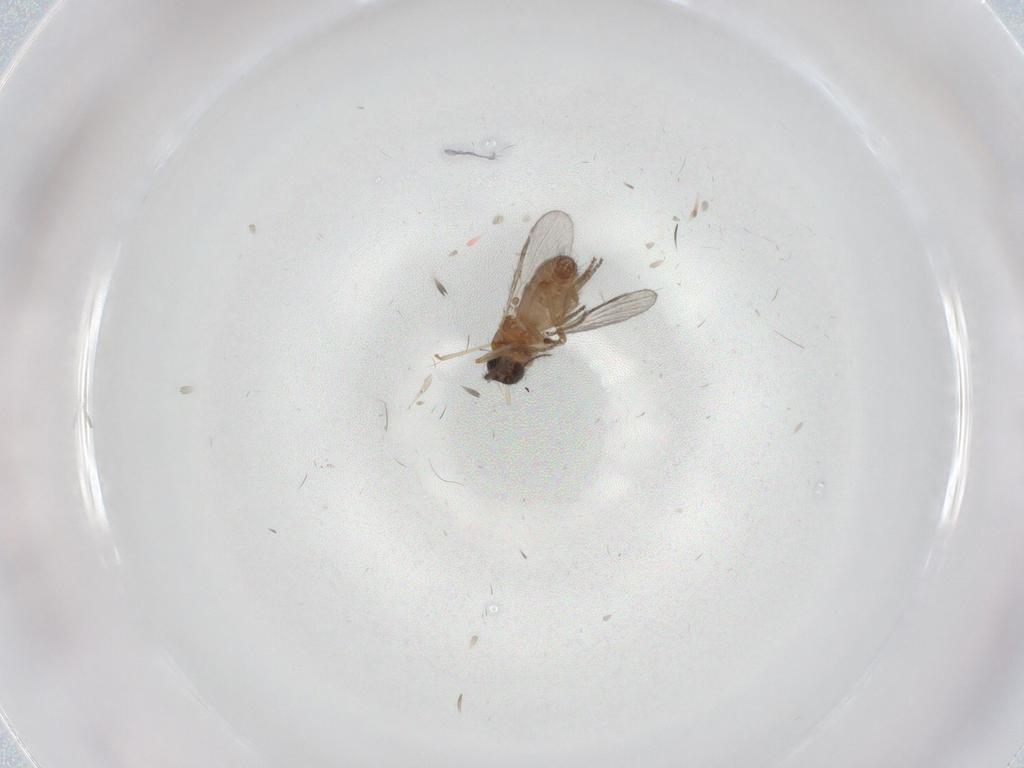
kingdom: Animalia
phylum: Arthropoda
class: Insecta
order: Diptera
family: Ceratopogonidae
